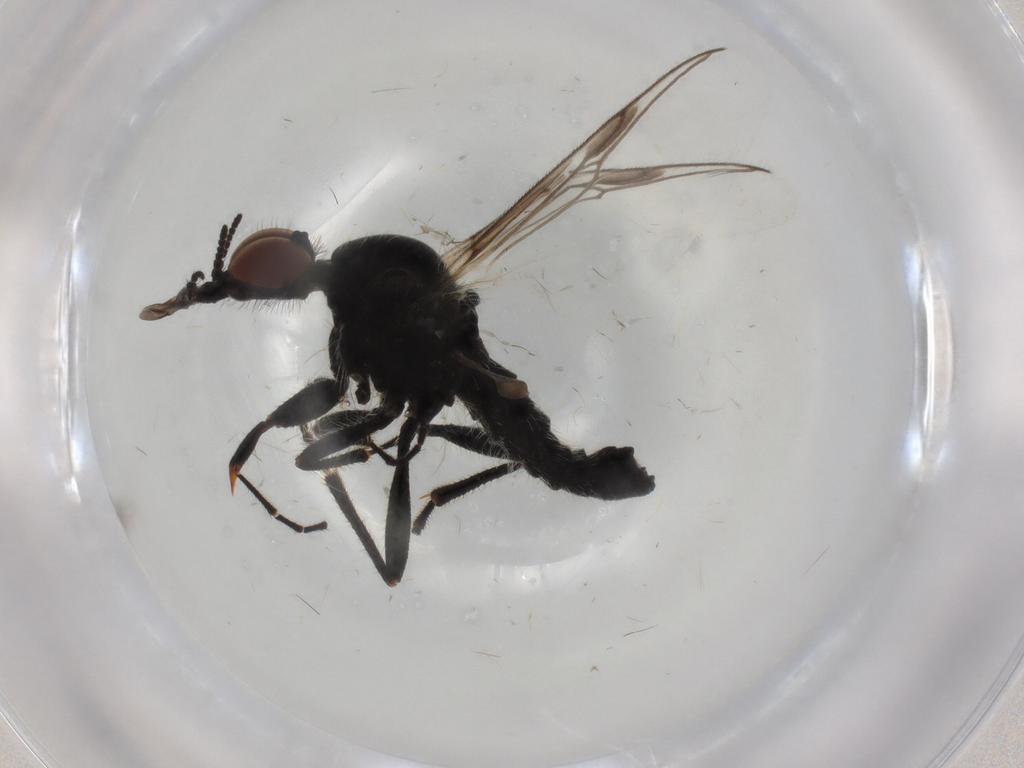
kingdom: Animalia
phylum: Arthropoda
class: Insecta
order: Diptera
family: Bibionidae
